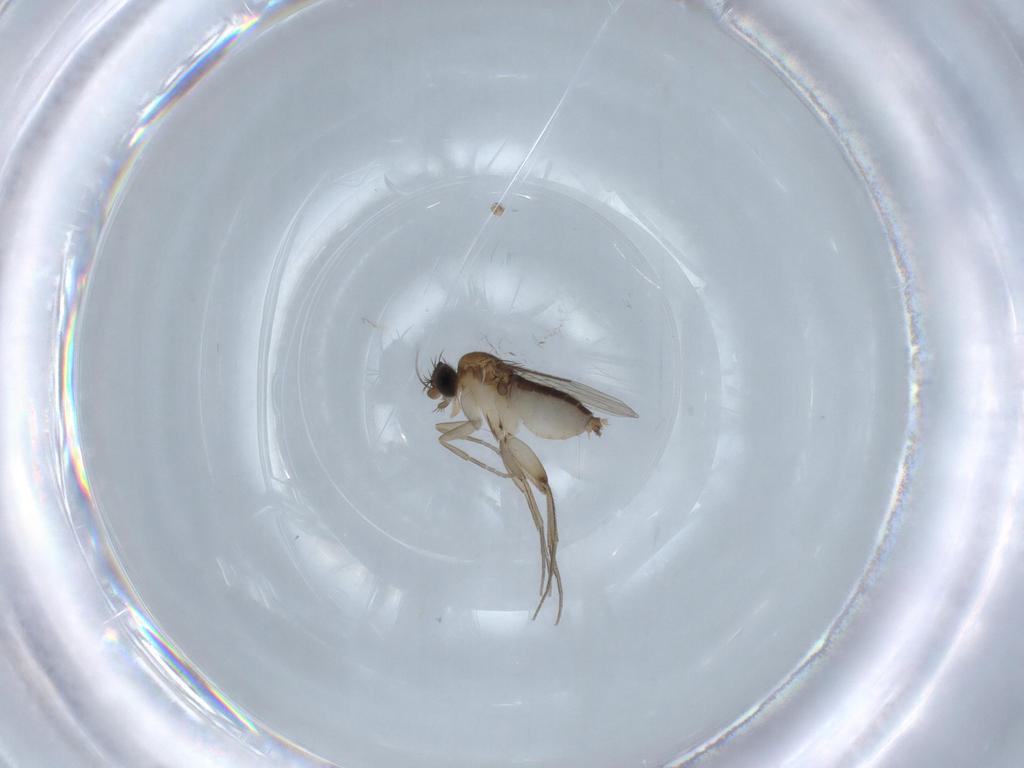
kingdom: Animalia
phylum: Arthropoda
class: Insecta
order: Diptera
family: Phoridae
